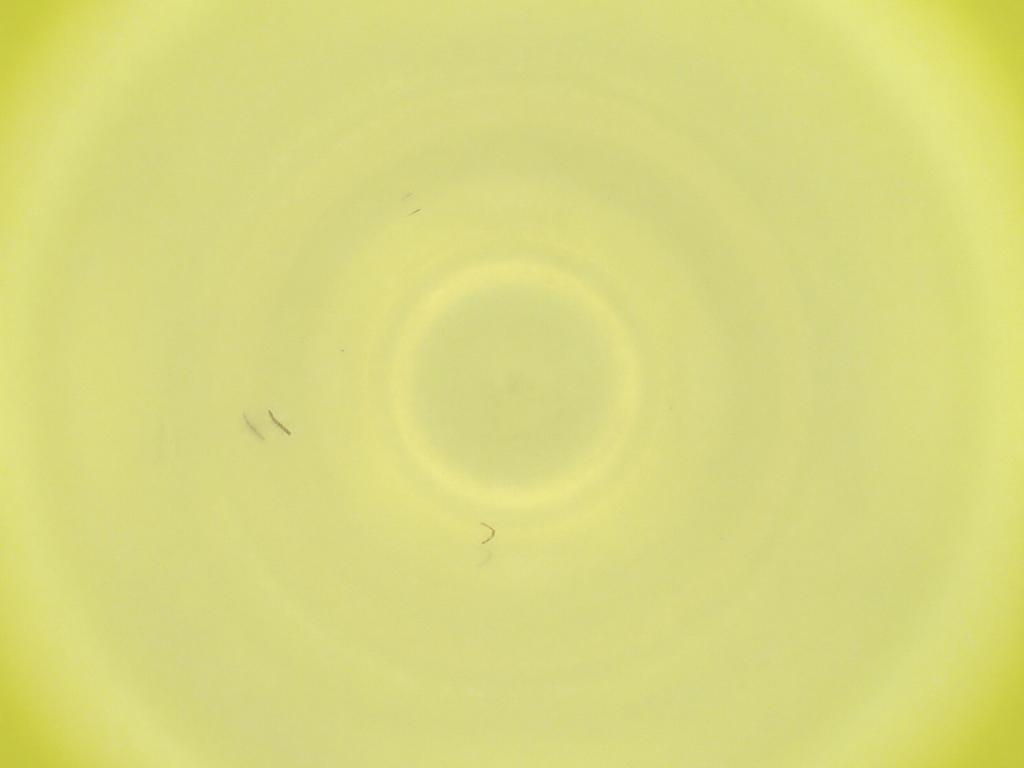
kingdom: Animalia
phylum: Arthropoda
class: Insecta
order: Diptera
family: Cecidomyiidae
